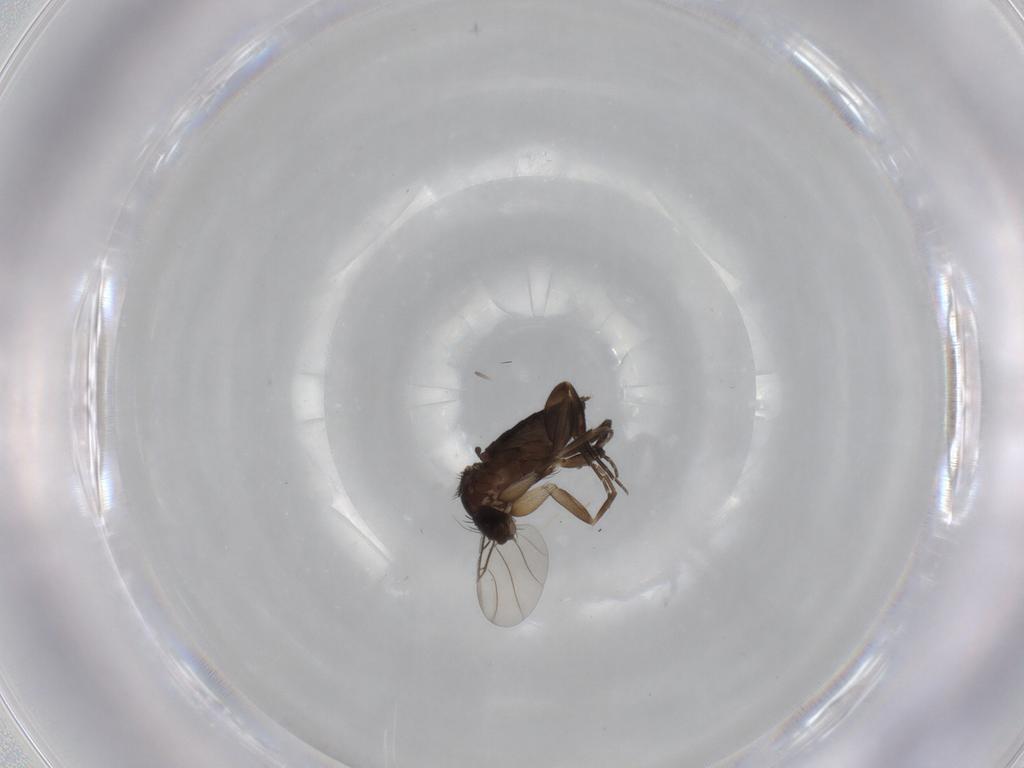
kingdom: Animalia
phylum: Arthropoda
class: Insecta
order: Diptera
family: Phoridae
